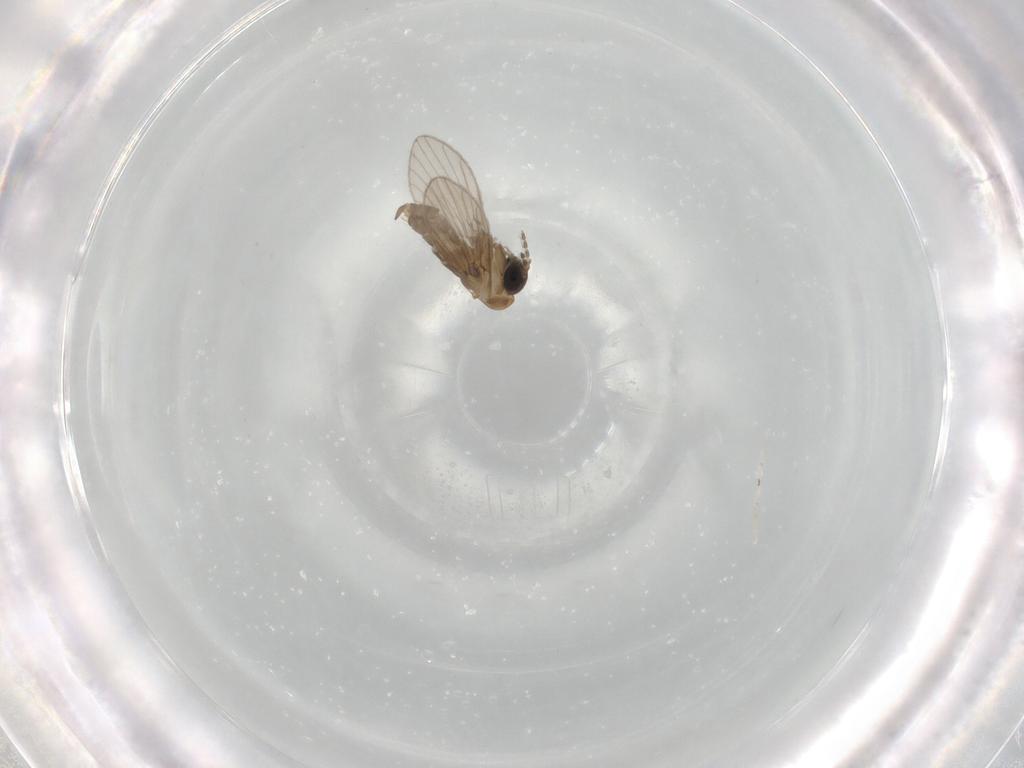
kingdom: Animalia
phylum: Arthropoda
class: Insecta
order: Diptera
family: Psychodidae
